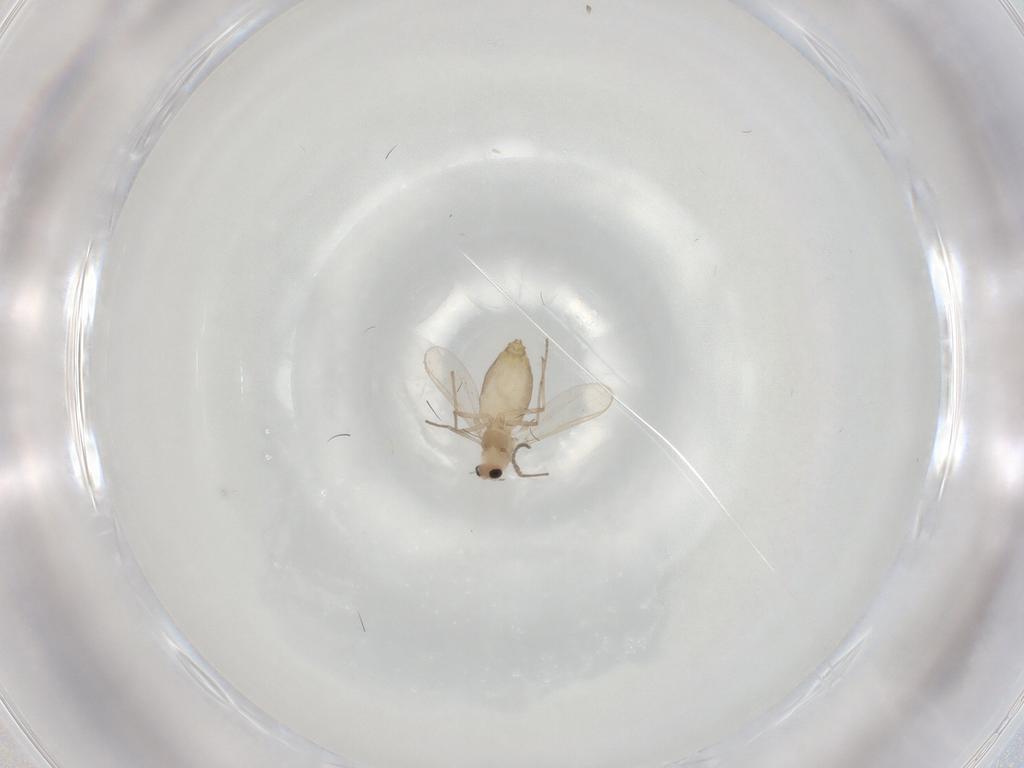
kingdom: Animalia
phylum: Arthropoda
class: Insecta
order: Diptera
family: Chironomidae
